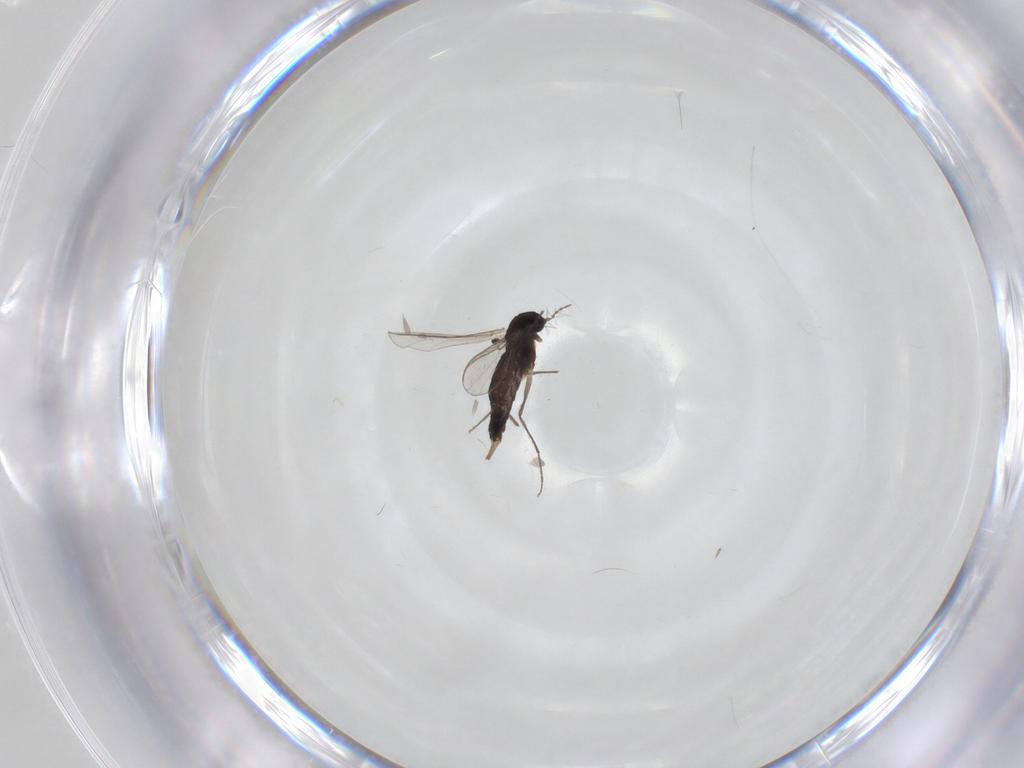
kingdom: Animalia
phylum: Arthropoda
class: Insecta
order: Diptera
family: Chironomidae
